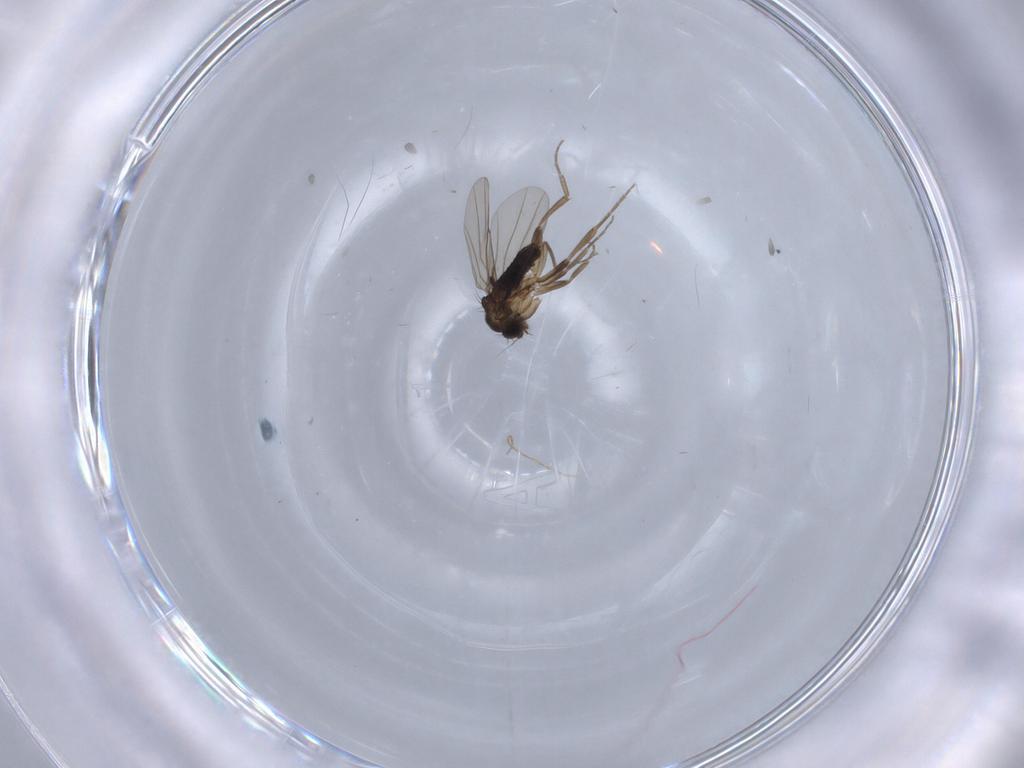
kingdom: Animalia
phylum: Arthropoda
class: Insecta
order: Diptera
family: Phoridae
